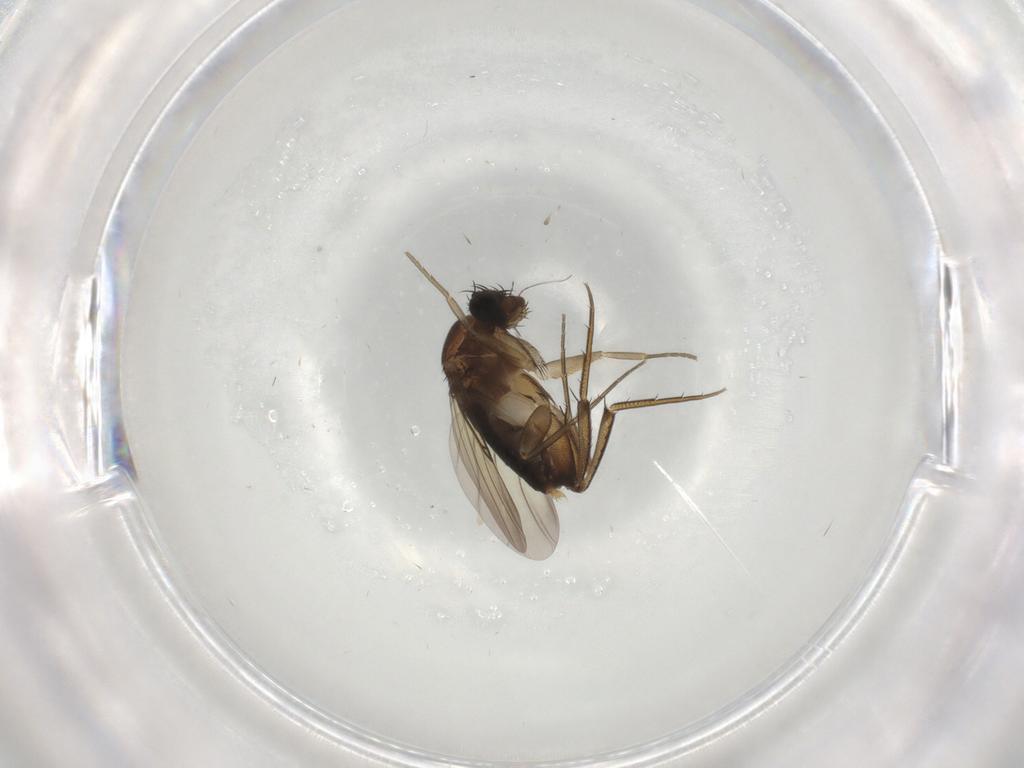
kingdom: Animalia
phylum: Arthropoda
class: Insecta
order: Diptera
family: Phoridae
